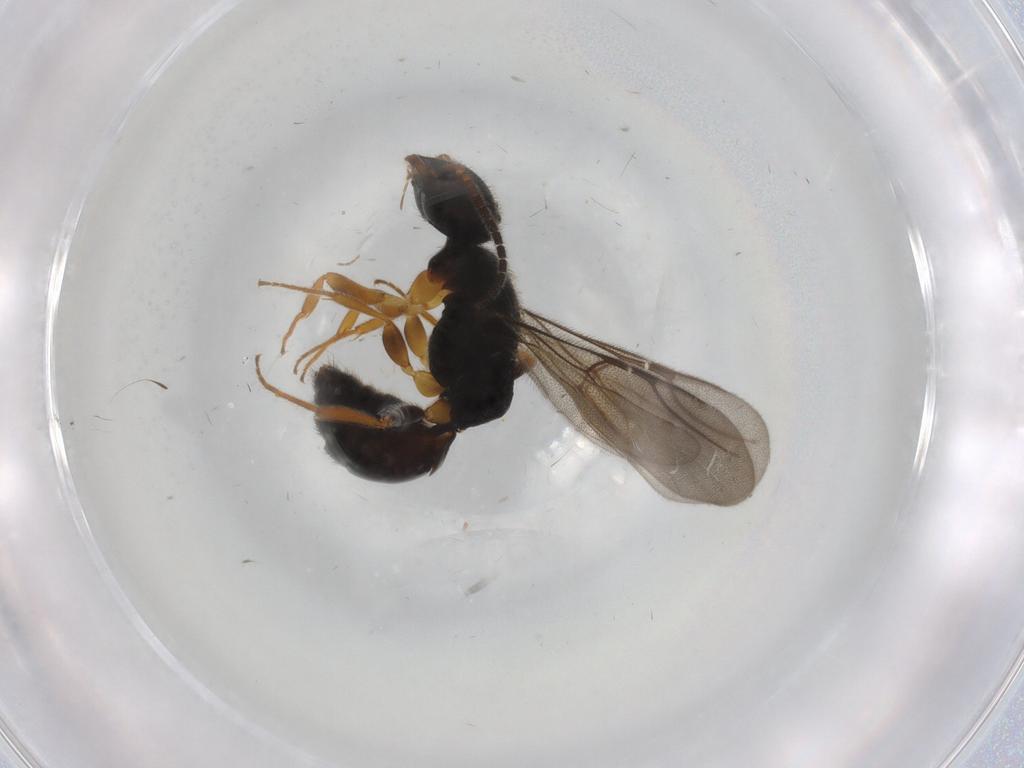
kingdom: Animalia
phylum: Arthropoda
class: Insecta
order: Hymenoptera
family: Bethylidae
